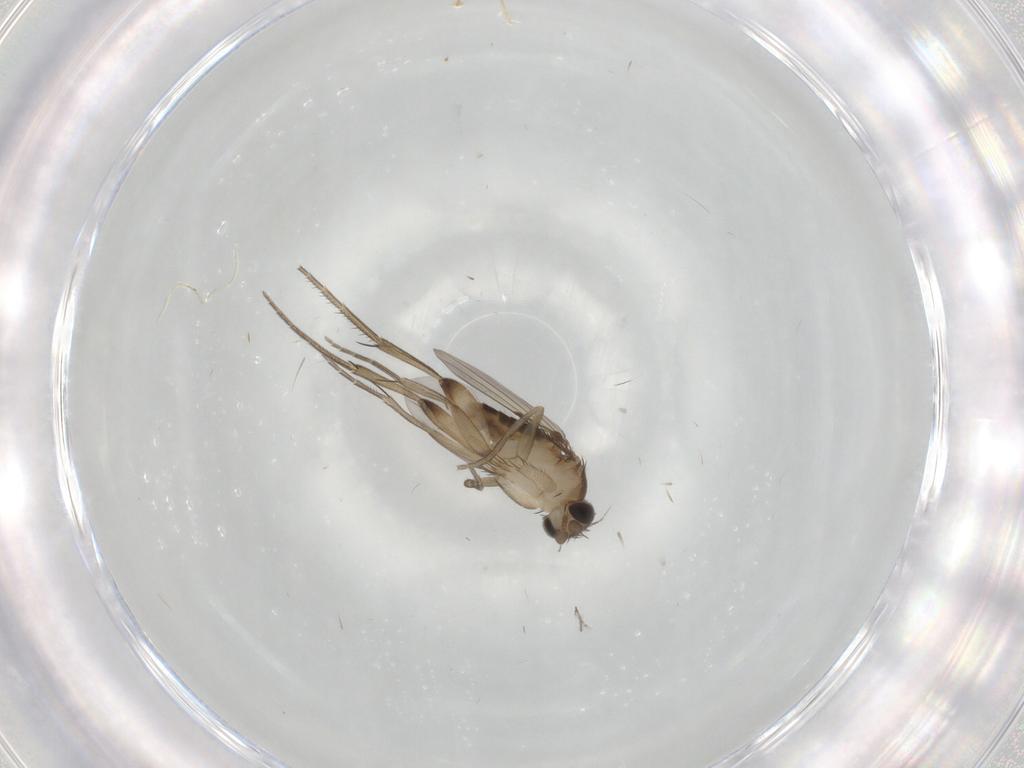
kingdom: Animalia
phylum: Arthropoda
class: Insecta
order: Diptera
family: Phoridae
